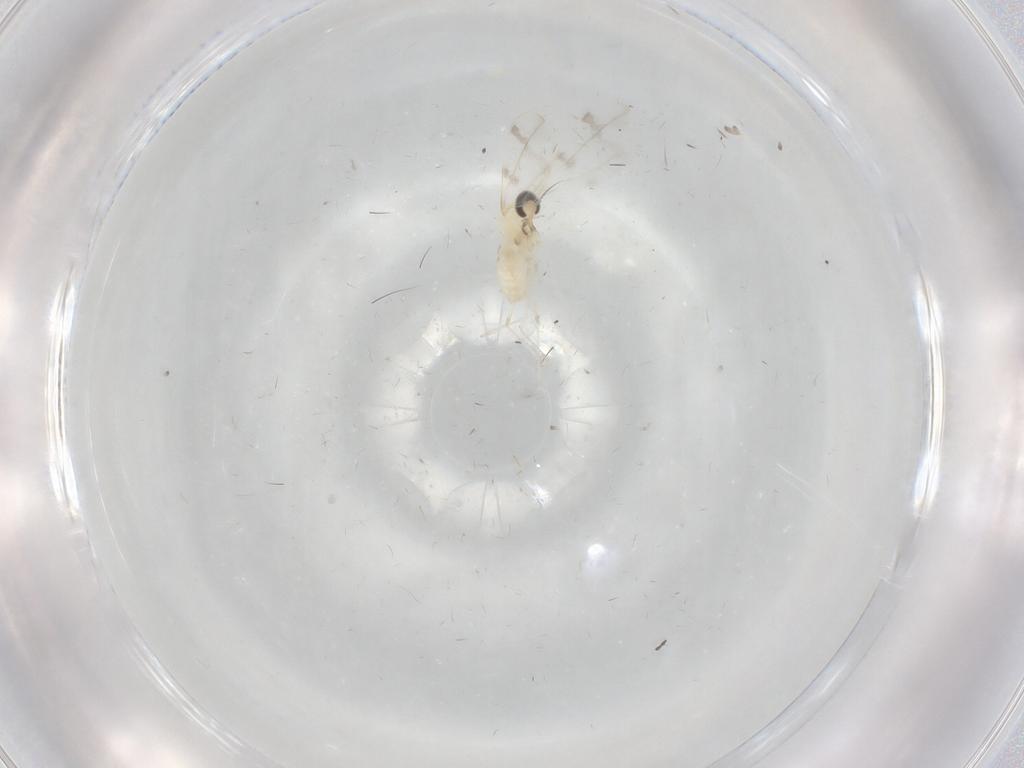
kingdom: Animalia
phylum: Arthropoda
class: Insecta
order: Diptera
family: Cecidomyiidae
